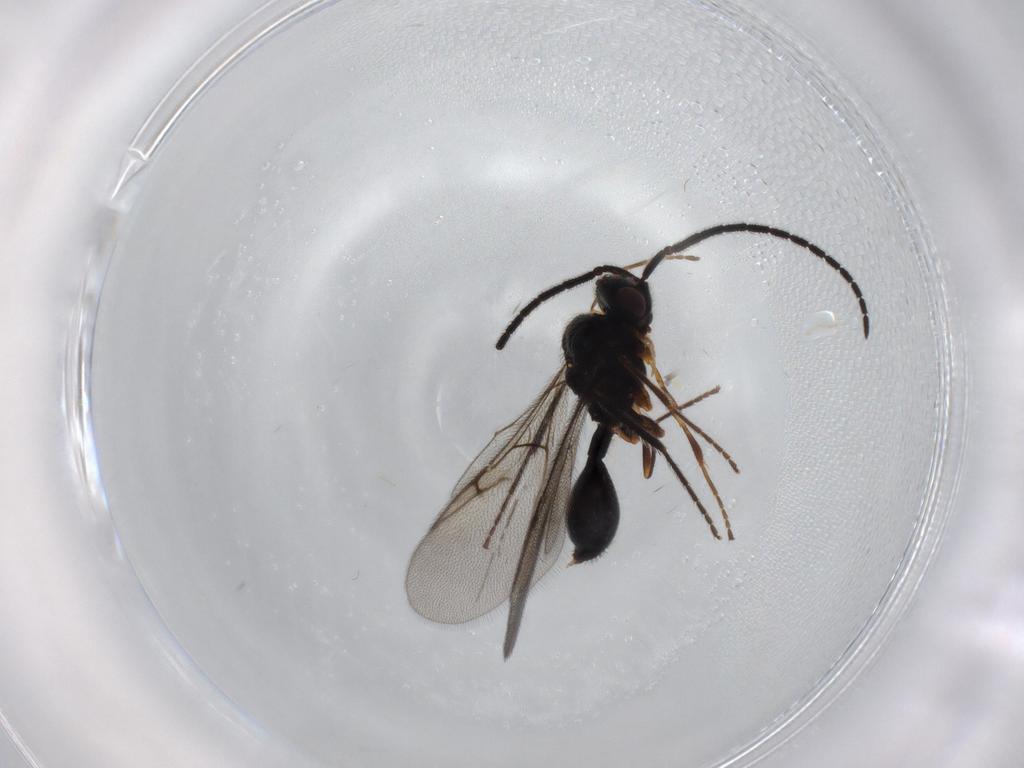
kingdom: Animalia
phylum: Arthropoda
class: Insecta
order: Hymenoptera
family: Diapriidae
